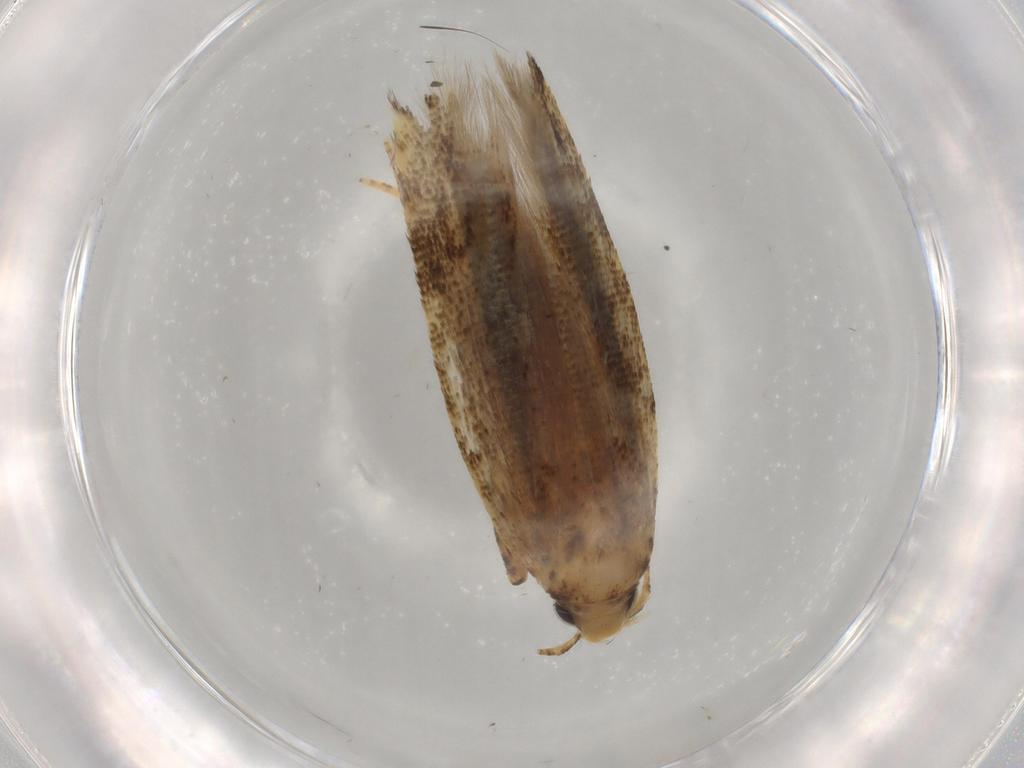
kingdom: Animalia
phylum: Arthropoda
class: Insecta
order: Lepidoptera
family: Gelechiidae
